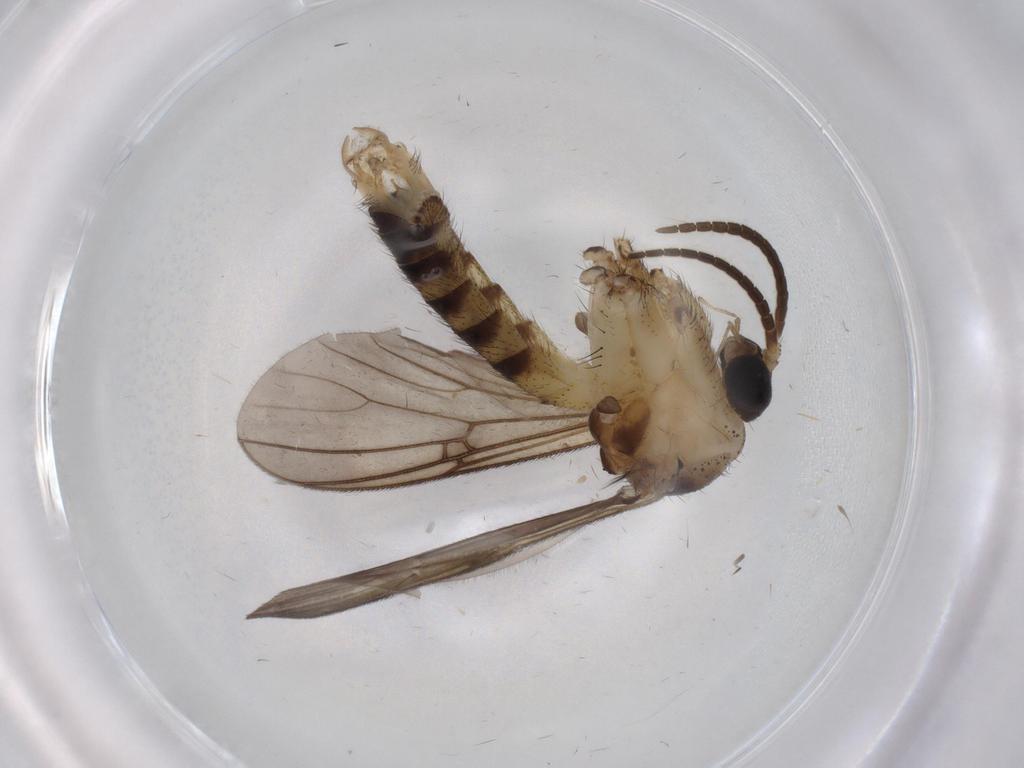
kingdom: Animalia
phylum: Arthropoda
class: Insecta
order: Diptera
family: Mycetophilidae
